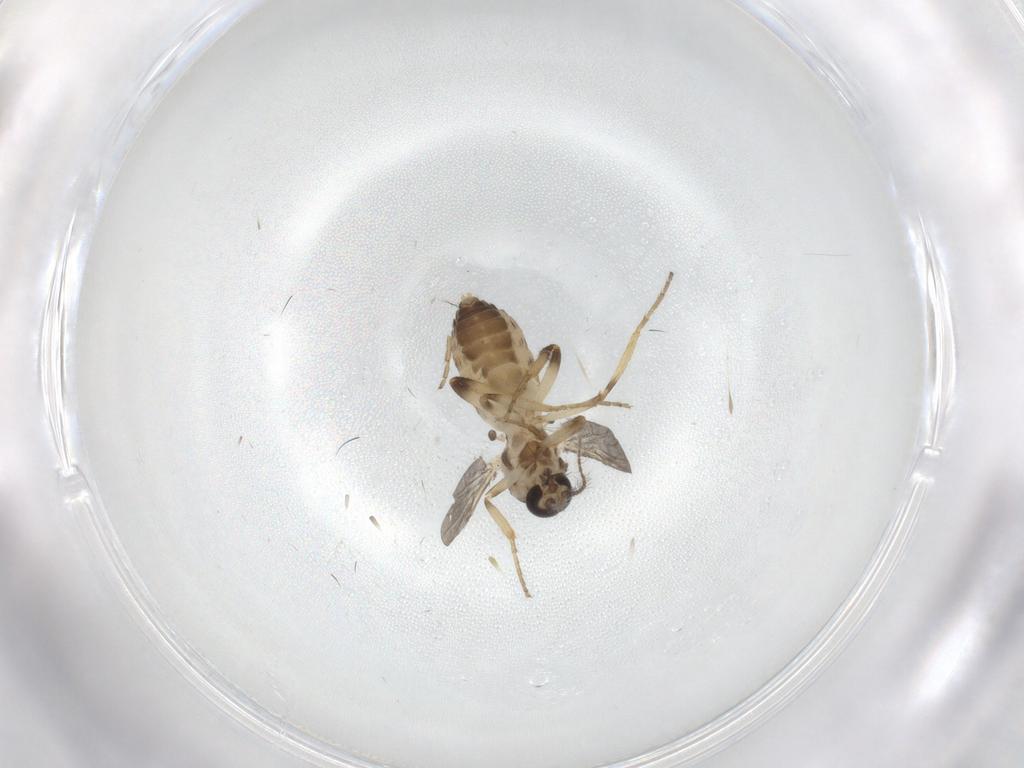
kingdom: Animalia
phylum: Arthropoda
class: Insecta
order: Diptera
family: Ceratopogonidae
